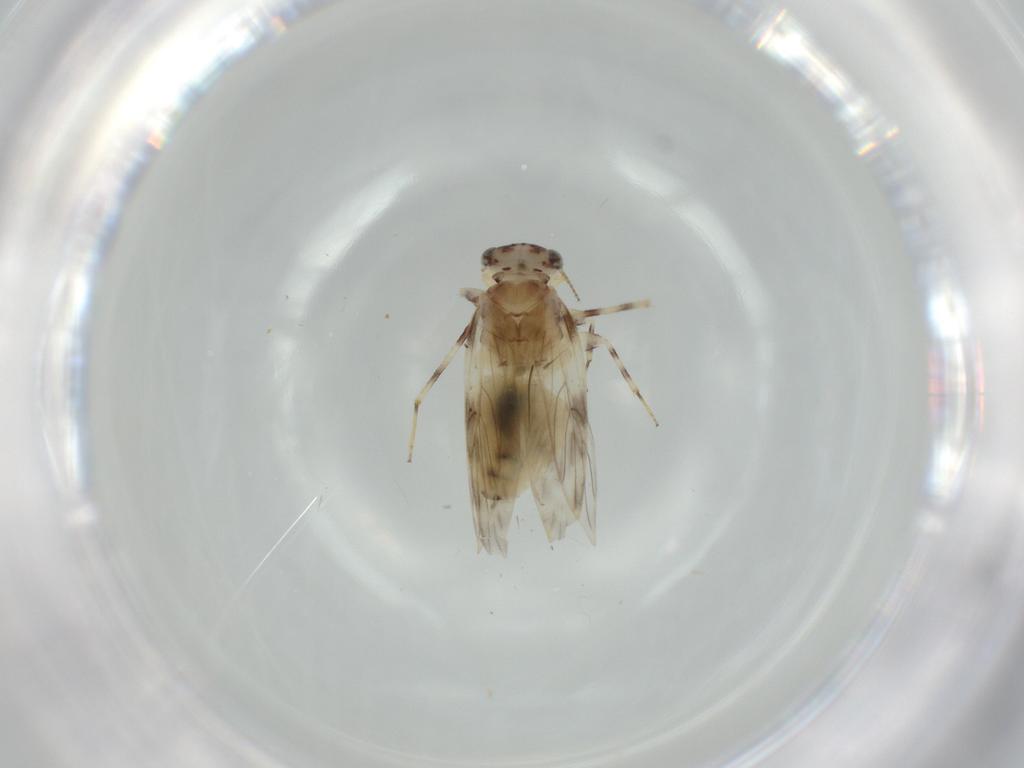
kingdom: Animalia
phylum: Arthropoda
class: Insecta
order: Psocodea
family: Lepidopsocidae
